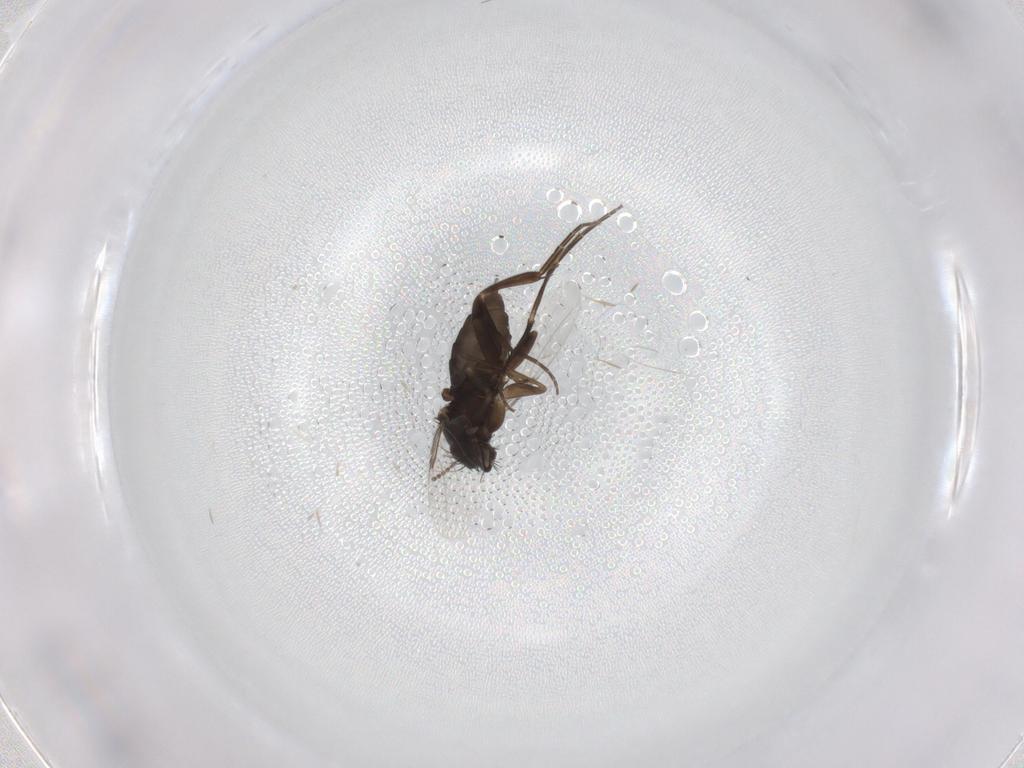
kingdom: Animalia
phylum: Arthropoda
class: Insecta
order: Diptera
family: Phoridae
